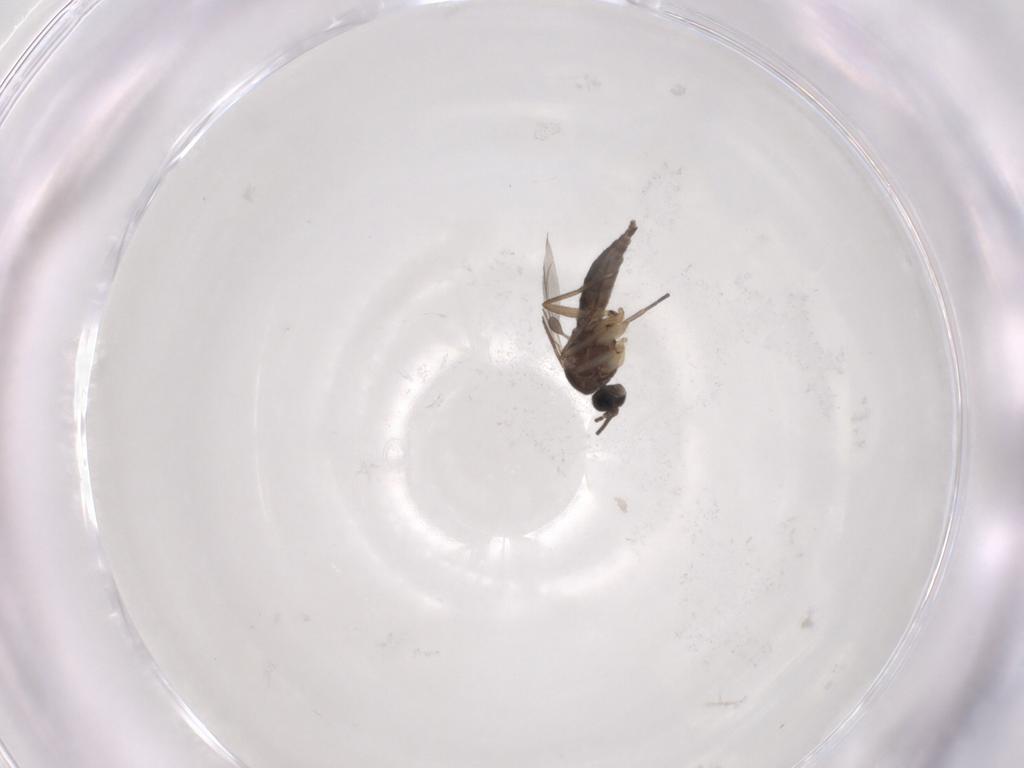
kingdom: Animalia
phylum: Arthropoda
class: Insecta
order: Diptera
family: Sciaridae
